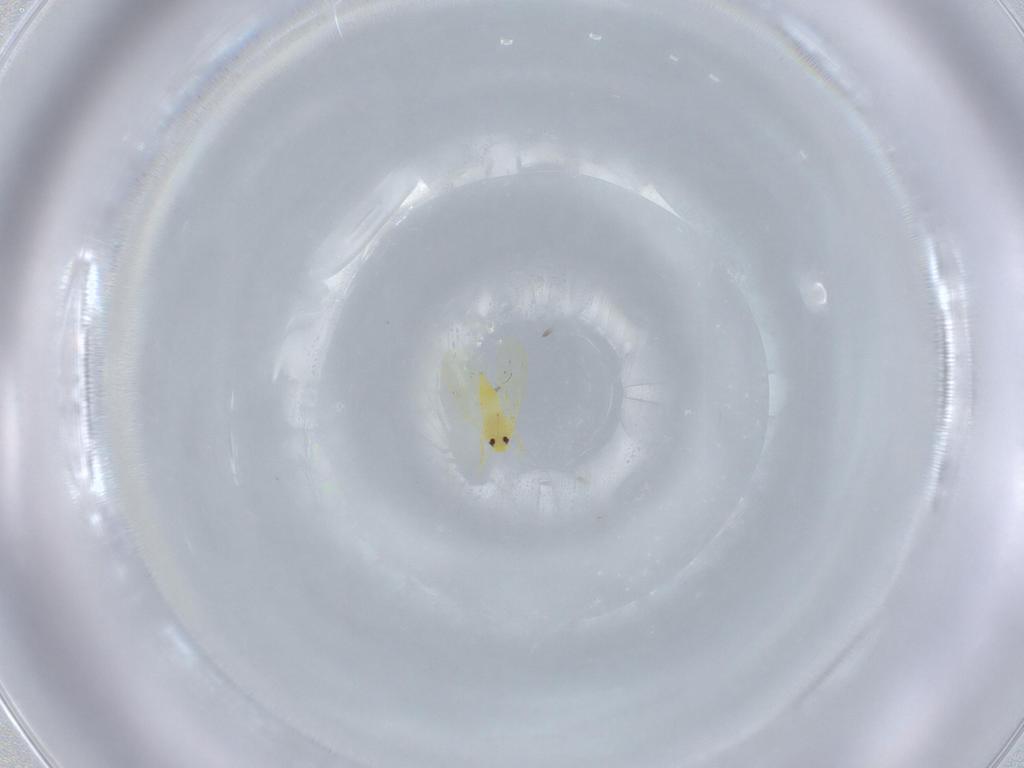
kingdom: Animalia
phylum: Arthropoda
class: Insecta
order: Hemiptera
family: Aleyrodidae
